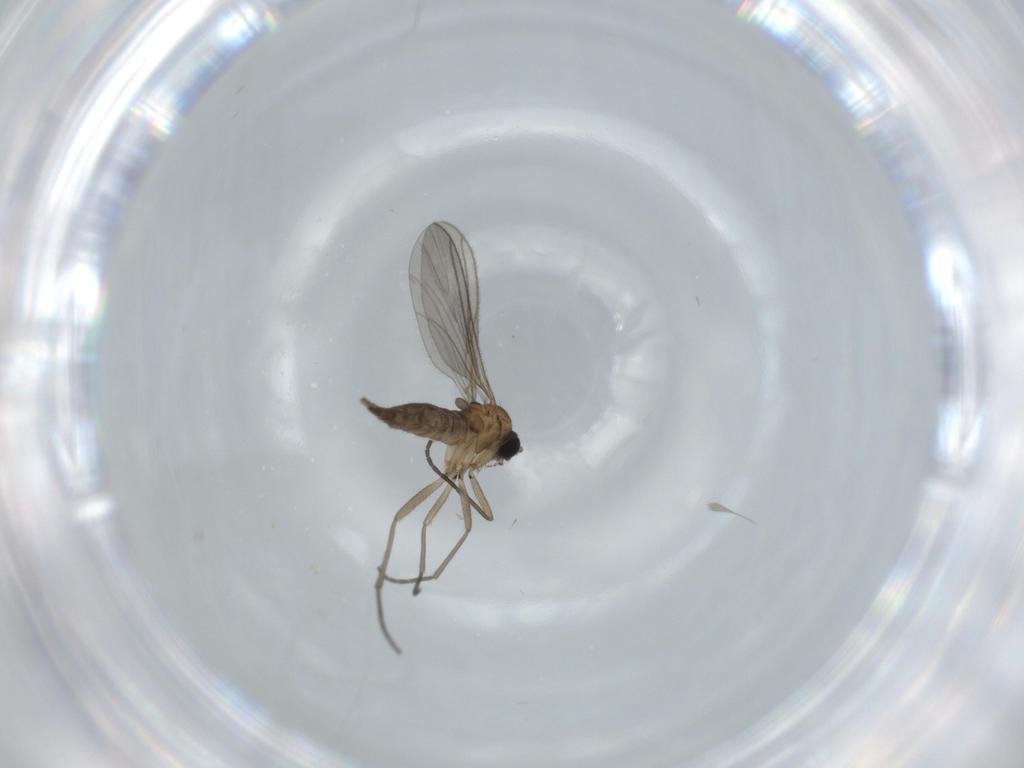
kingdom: Animalia
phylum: Arthropoda
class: Insecta
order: Diptera
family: Sciaridae
